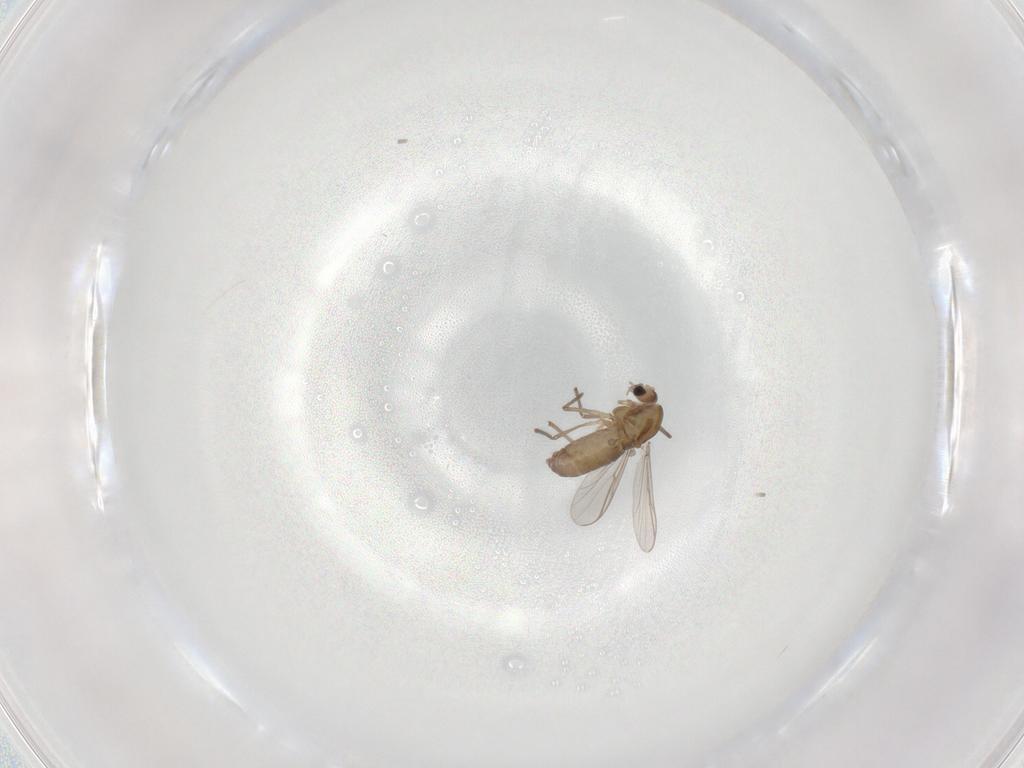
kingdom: Animalia
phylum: Arthropoda
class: Insecta
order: Diptera
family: Chironomidae
